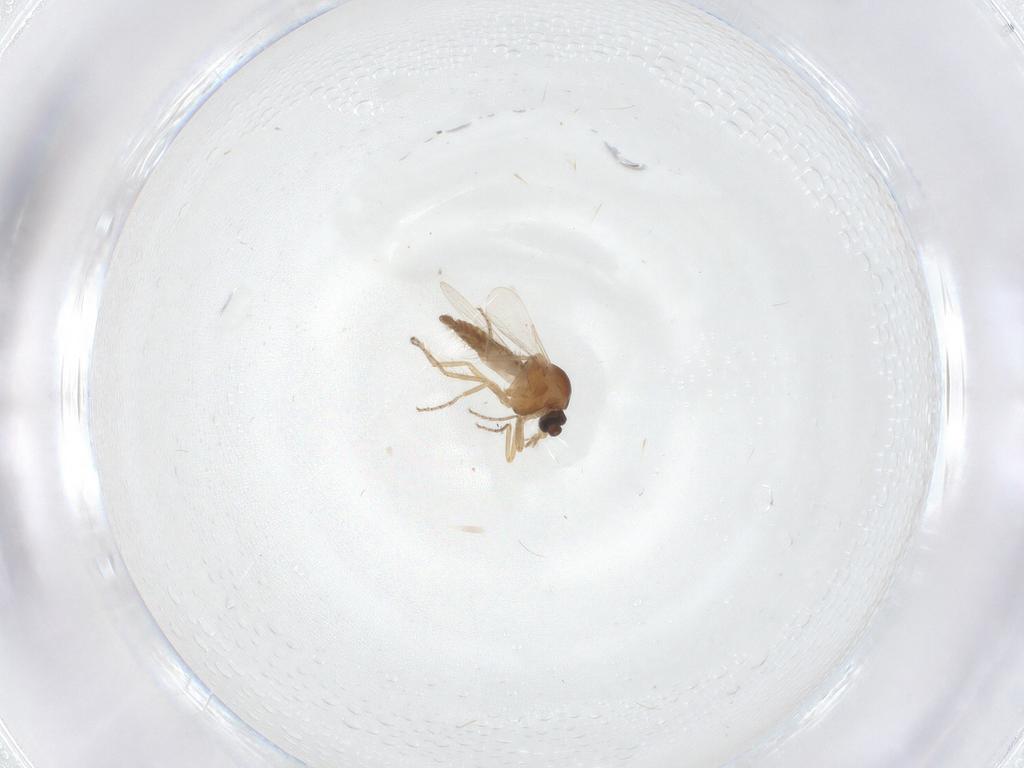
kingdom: Animalia
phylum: Arthropoda
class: Insecta
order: Diptera
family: Ceratopogonidae
